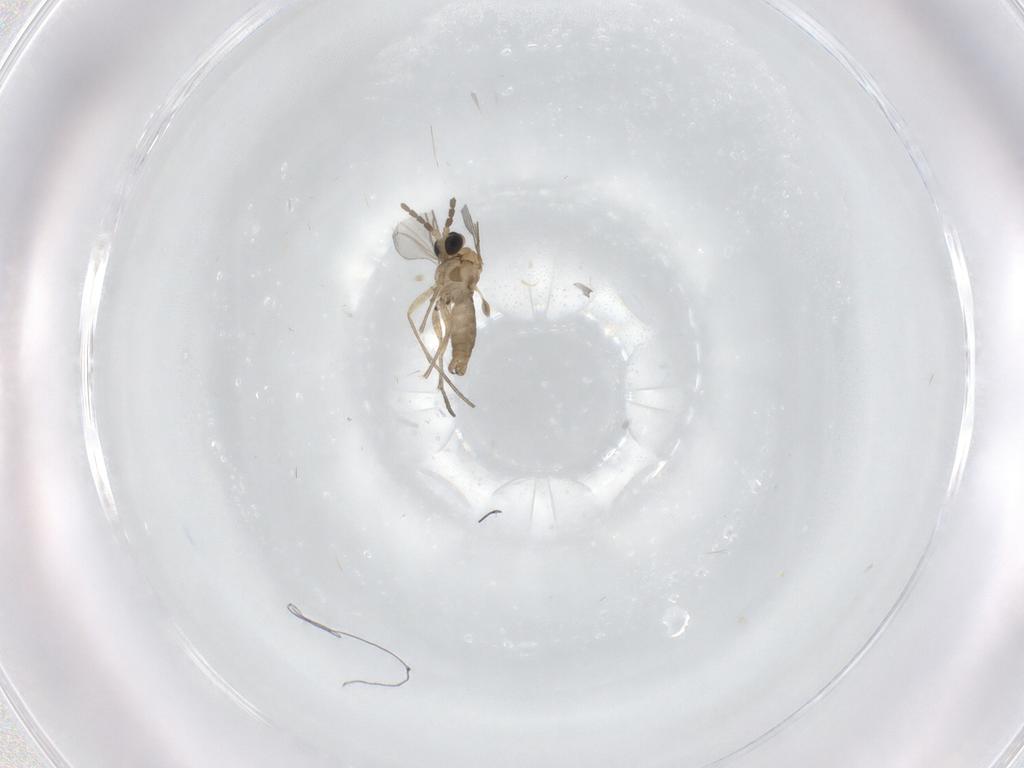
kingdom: Animalia
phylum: Arthropoda
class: Insecta
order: Diptera
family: Sciaridae
